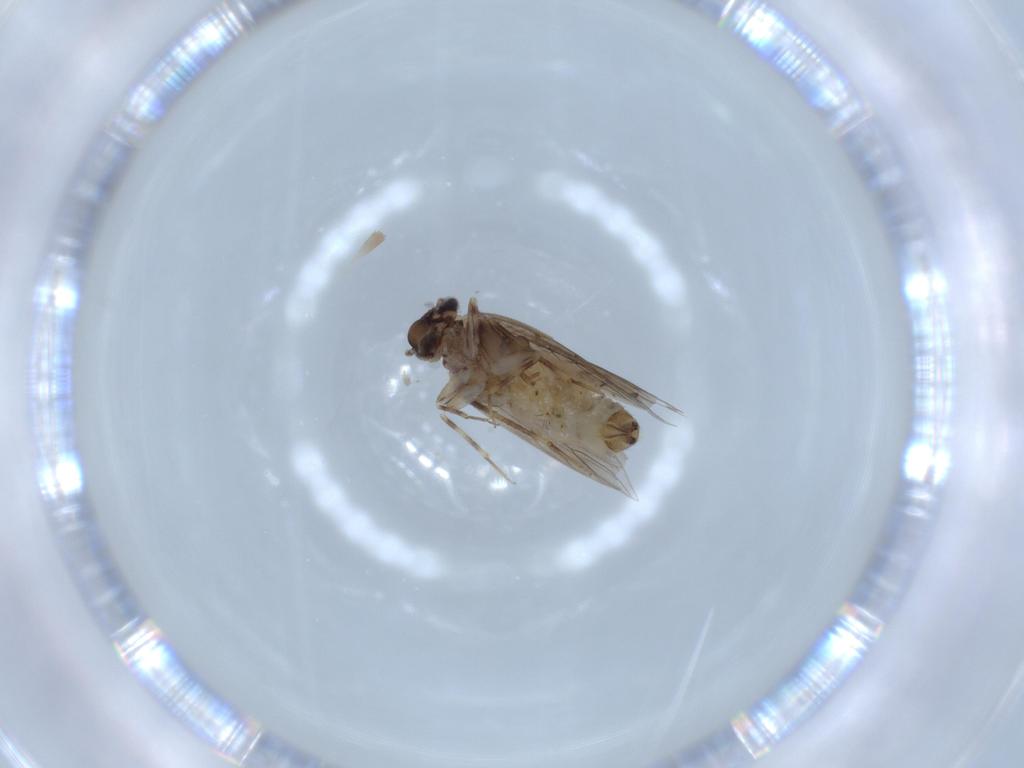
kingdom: Animalia
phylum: Arthropoda
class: Insecta
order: Psocodea
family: Lepidopsocidae
